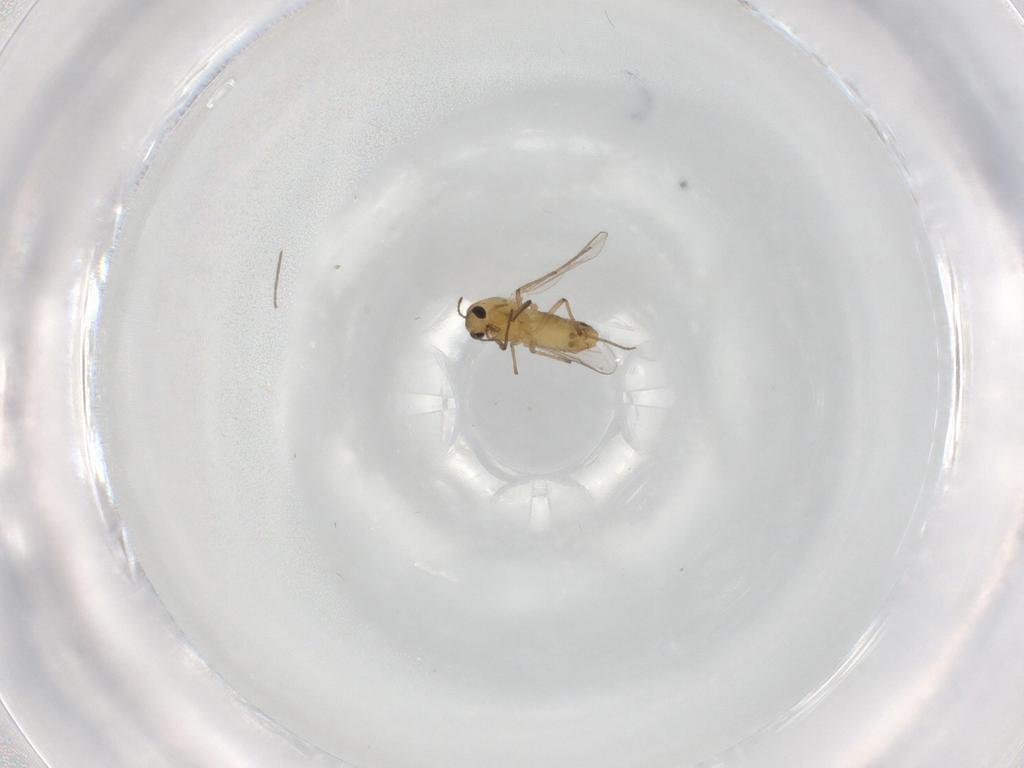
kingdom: Animalia
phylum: Arthropoda
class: Insecta
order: Diptera
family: Chironomidae
